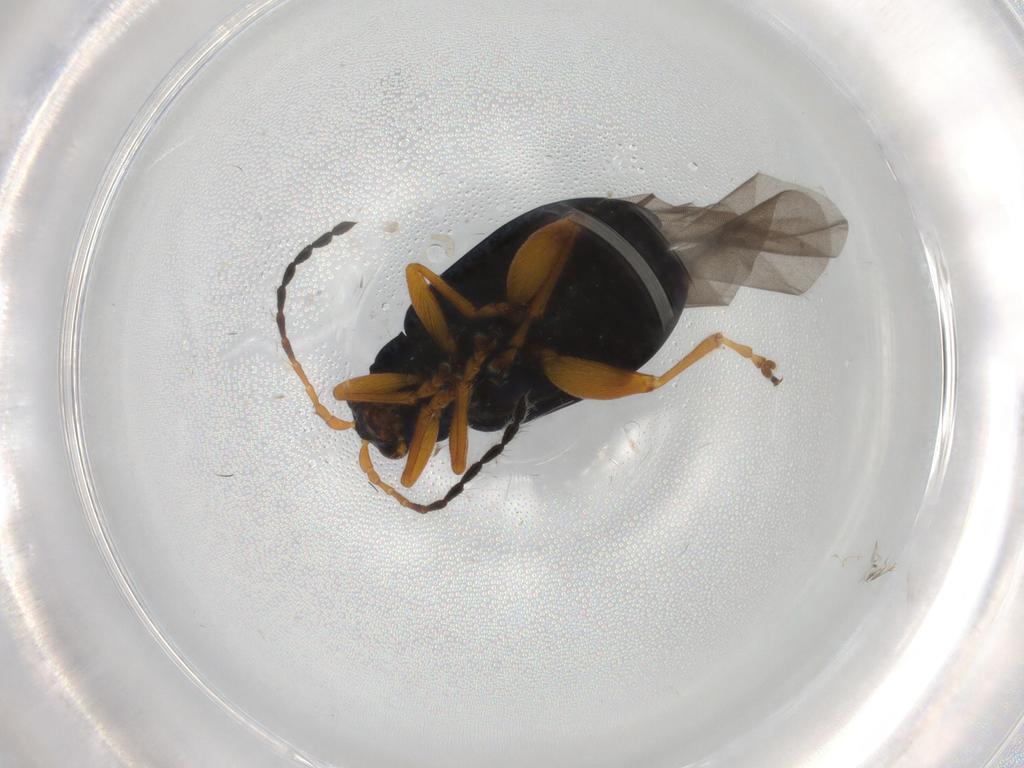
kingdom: Animalia
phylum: Arthropoda
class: Insecta
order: Coleoptera
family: Chrysomelidae
